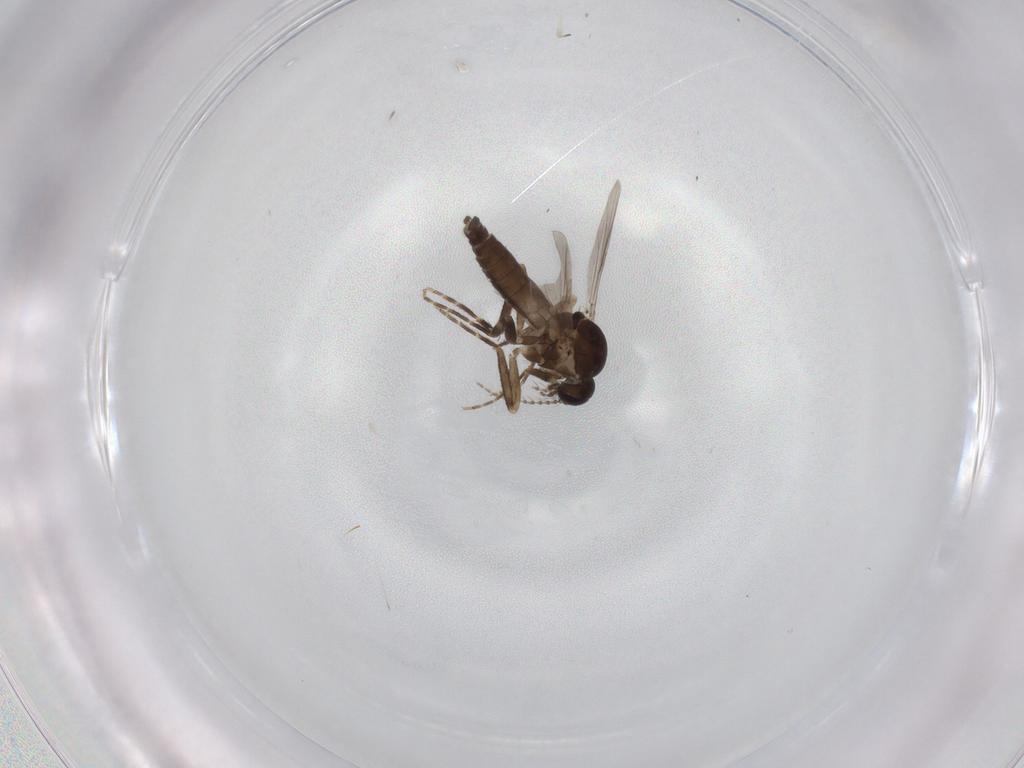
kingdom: Animalia
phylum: Arthropoda
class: Insecta
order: Diptera
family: Ceratopogonidae
